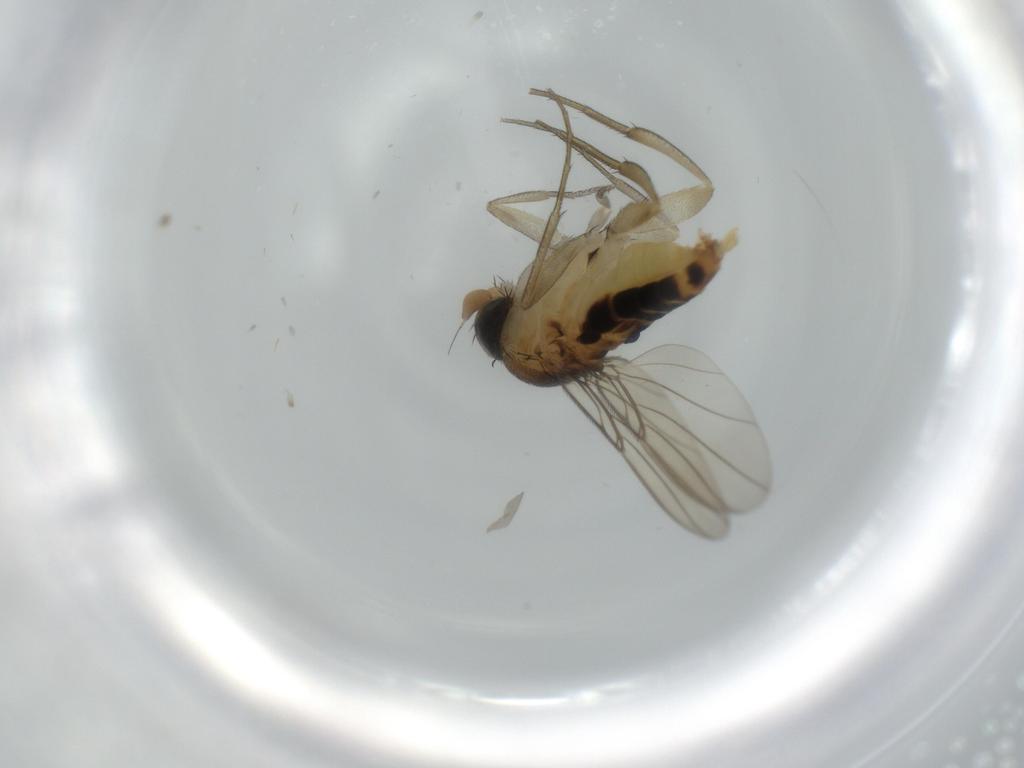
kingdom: Animalia
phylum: Arthropoda
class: Insecta
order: Diptera
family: Phoridae
